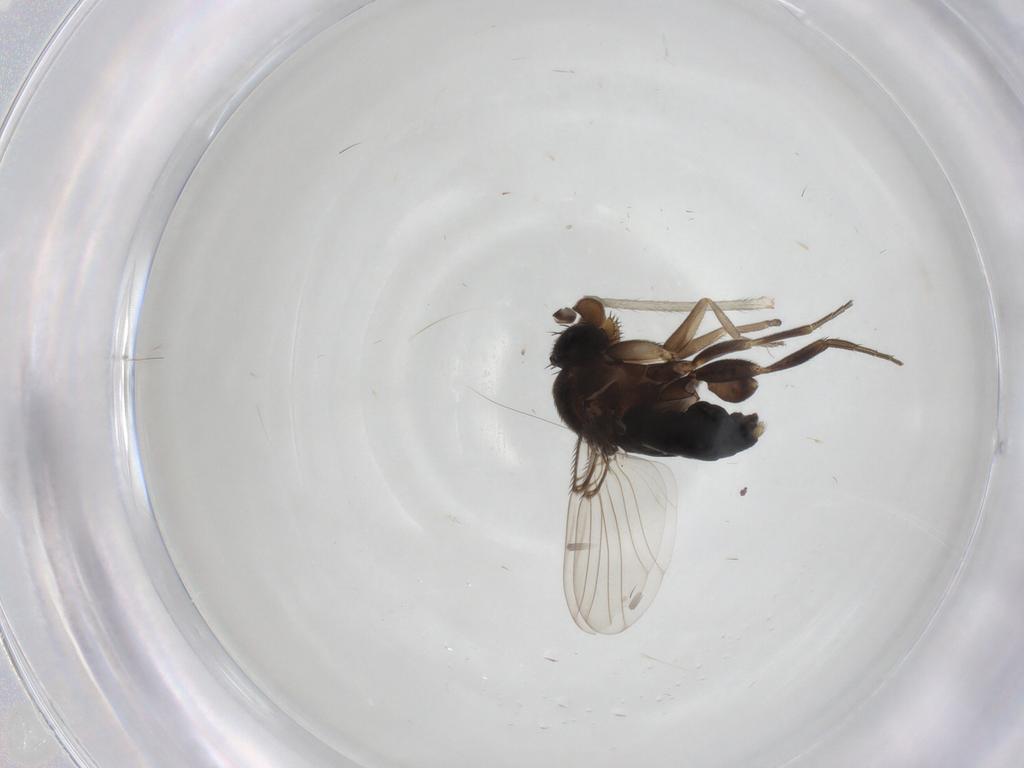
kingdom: Animalia
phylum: Arthropoda
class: Insecta
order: Diptera
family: Phoridae
